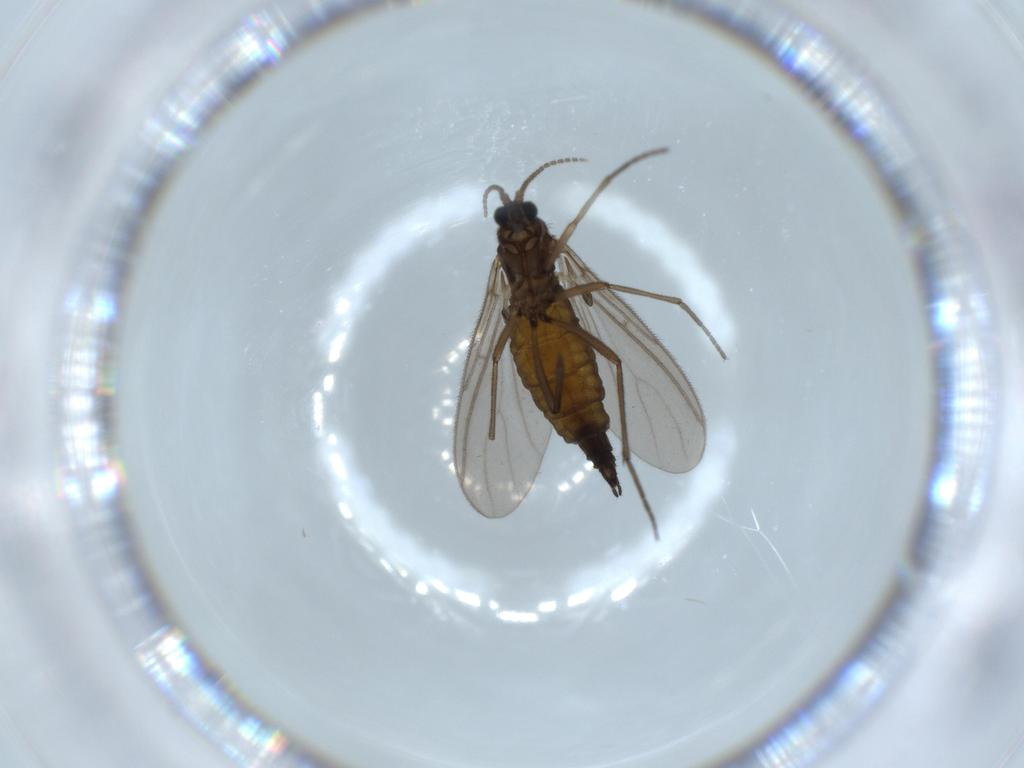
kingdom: Animalia
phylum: Arthropoda
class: Insecta
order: Diptera
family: Sciaridae
